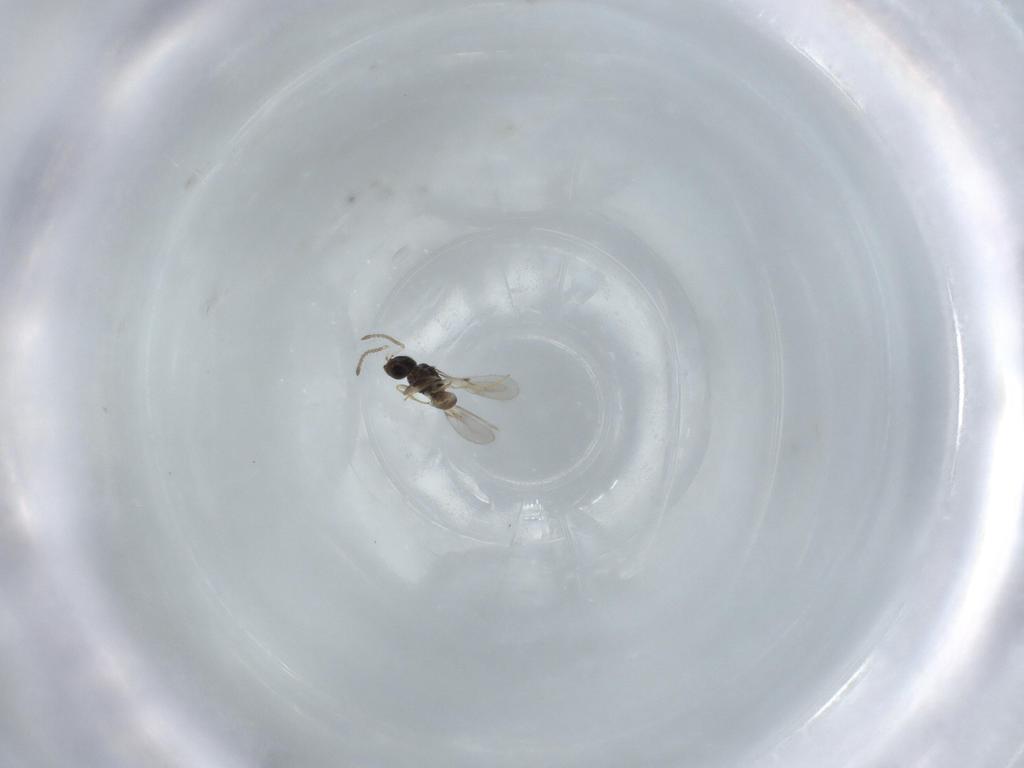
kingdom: Animalia
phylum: Arthropoda
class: Insecta
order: Hymenoptera
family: Scelionidae
